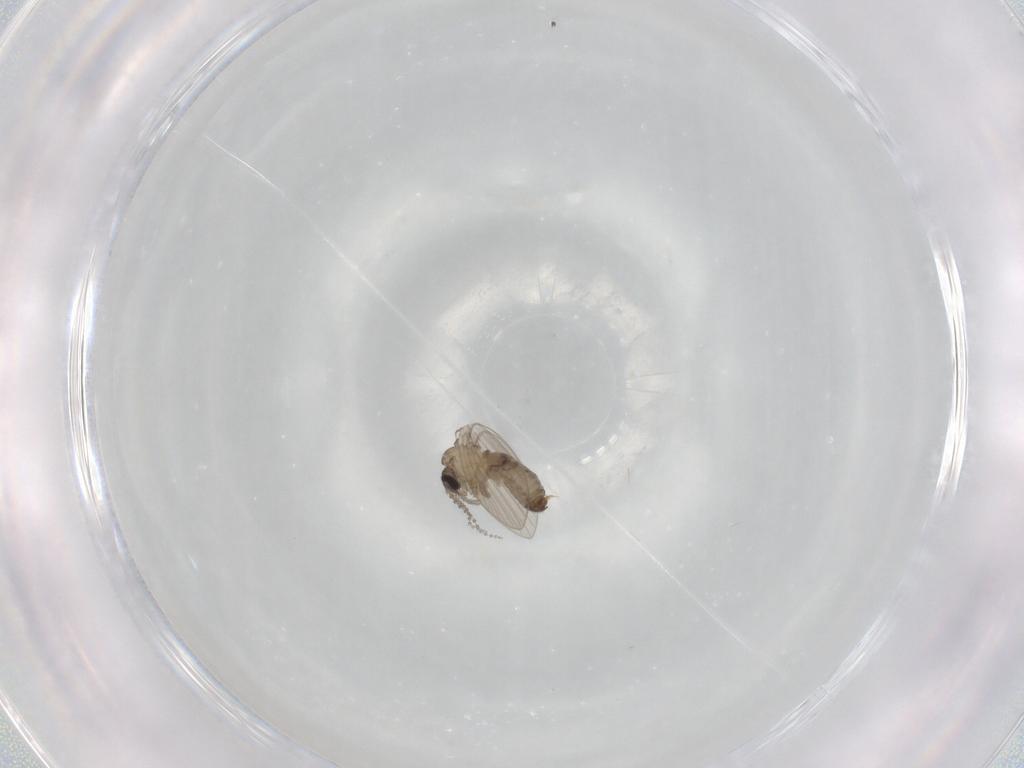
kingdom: Animalia
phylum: Arthropoda
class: Insecta
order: Diptera
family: Psychodidae
